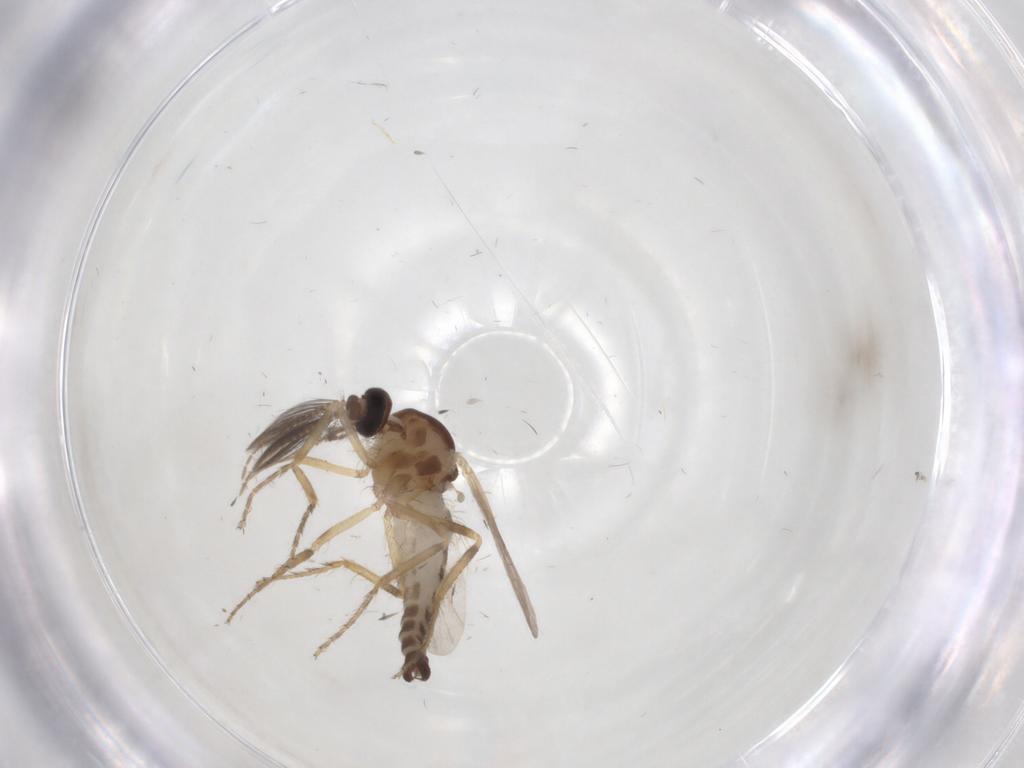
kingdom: Animalia
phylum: Arthropoda
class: Insecta
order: Diptera
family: Ceratopogonidae
